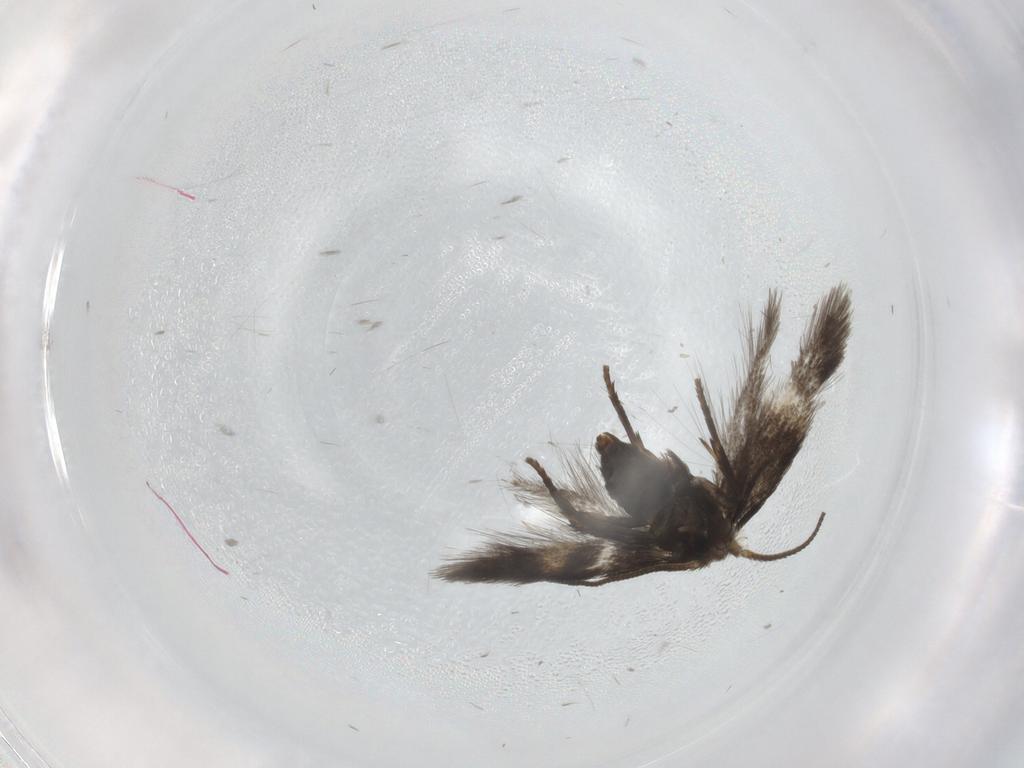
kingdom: Animalia
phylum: Arthropoda
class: Insecta
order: Lepidoptera
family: Nepticulidae
